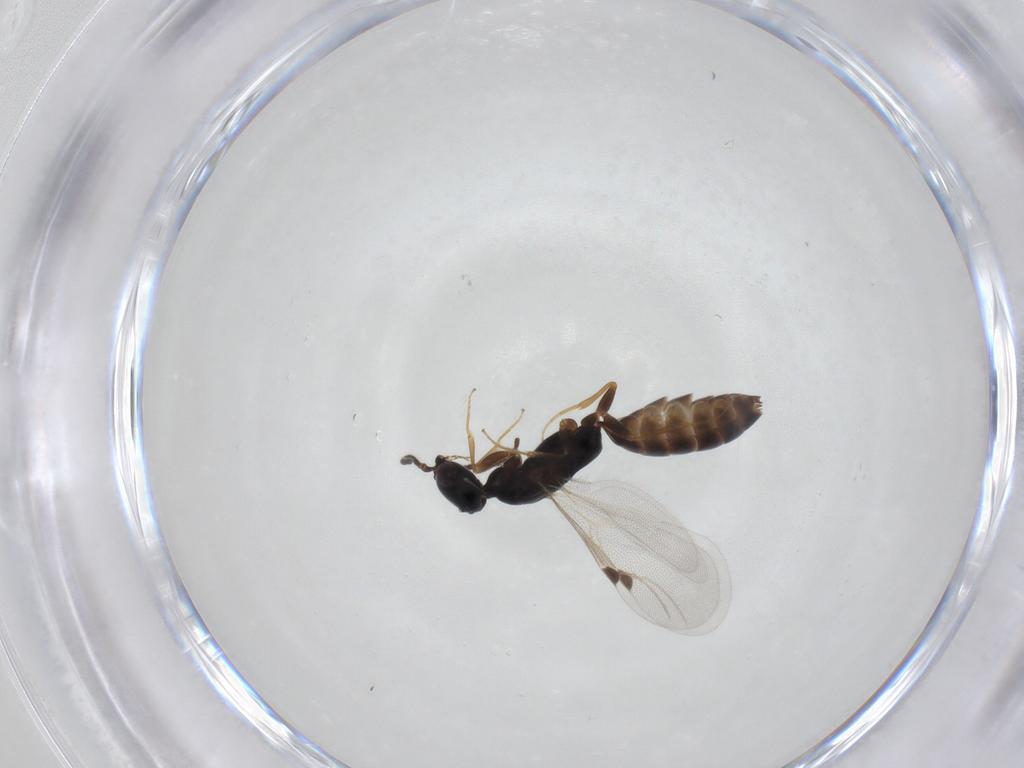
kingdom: Animalia
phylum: Arthropoda
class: Insecta
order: Hymenoptera
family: Bethylidae
